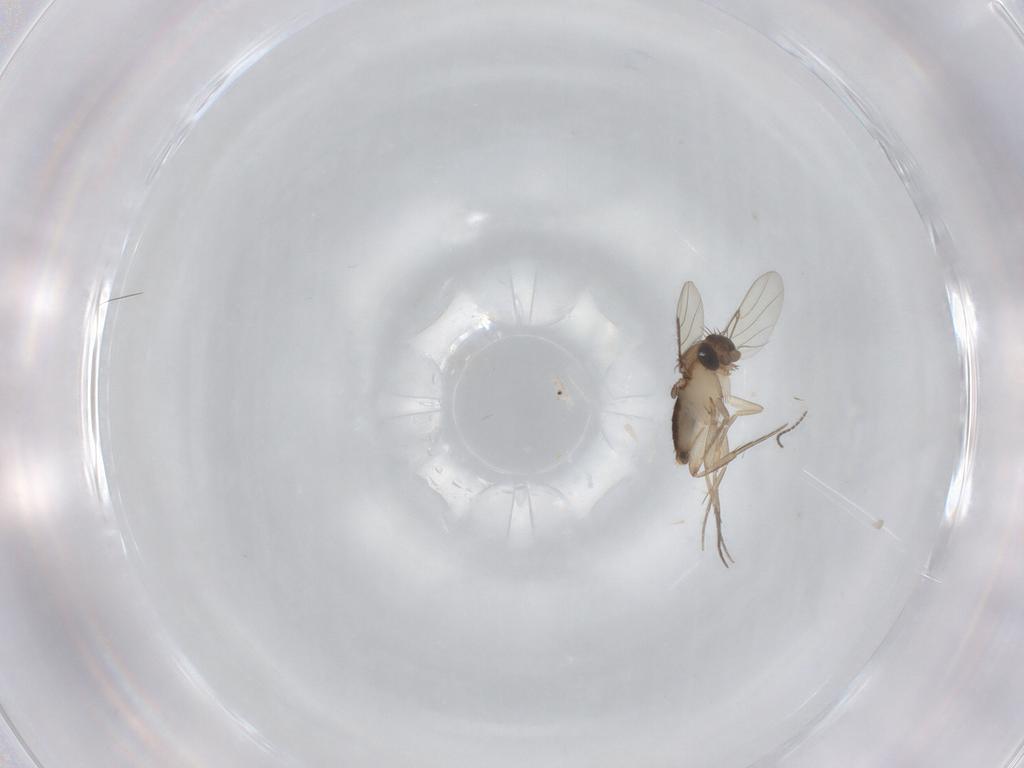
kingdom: Animalia
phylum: Arthropoda
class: Insecta
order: Diptera
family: Phoridae
